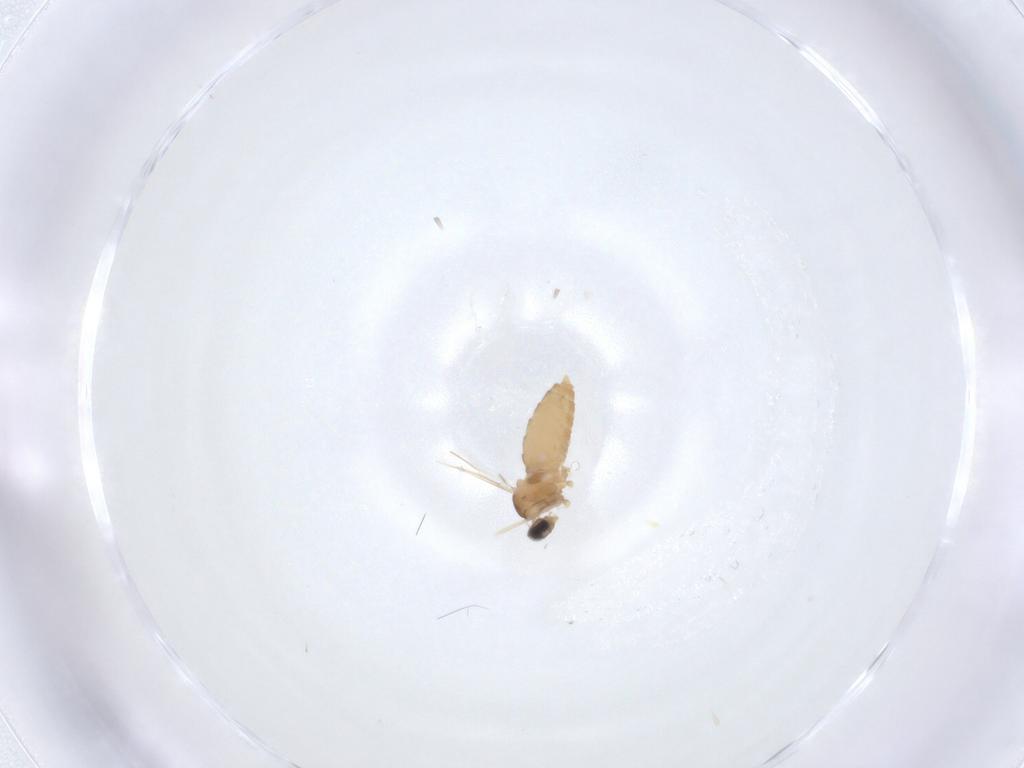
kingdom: Animalia
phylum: Arthropoda
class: Insecta
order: Diptera
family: Cecidomyiidae
